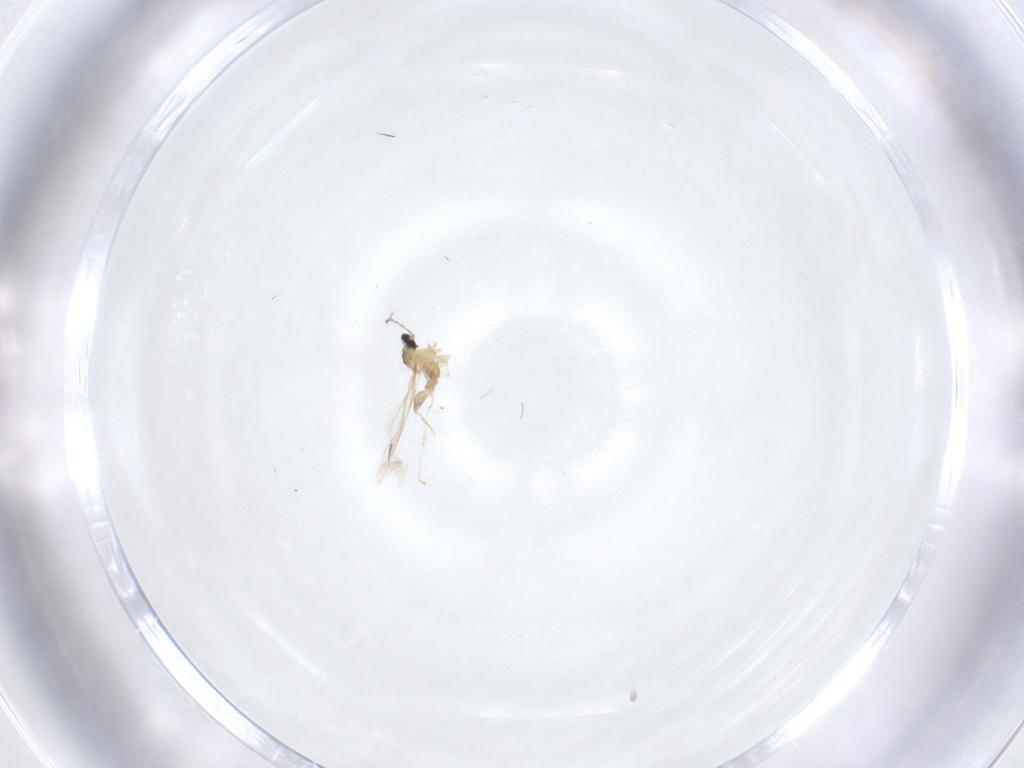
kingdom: Animalia
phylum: Arthropoda
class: Insecta
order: Diptera
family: Cecidomyiidae
